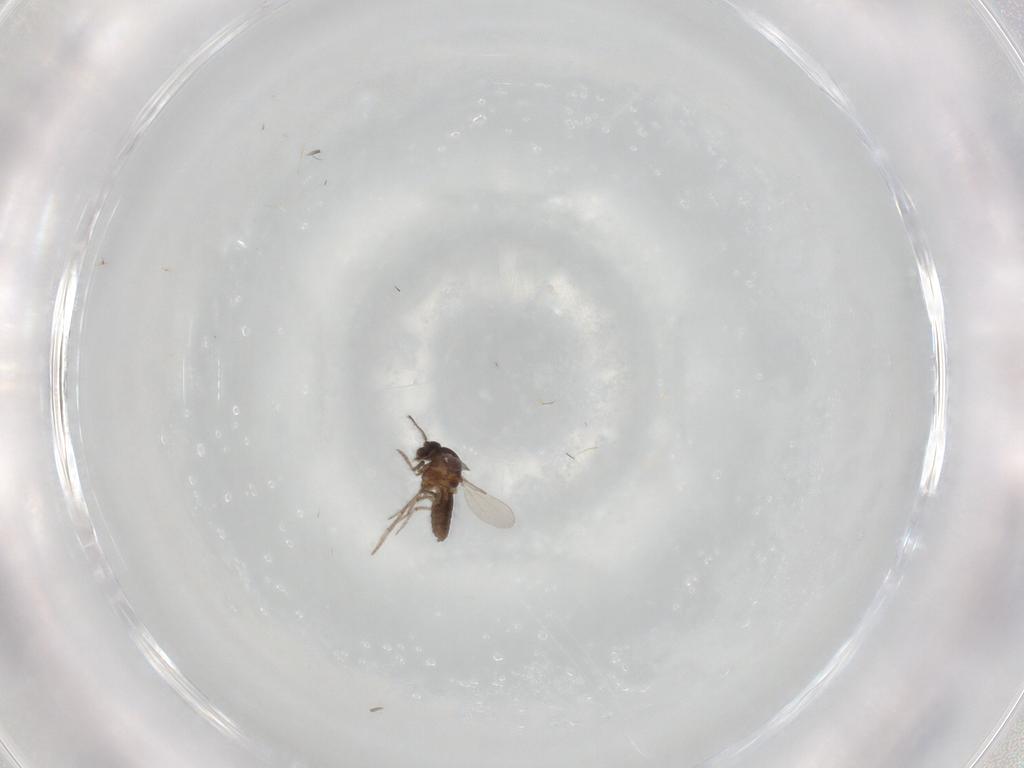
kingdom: Animalia
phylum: Arthropoda
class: Insecta
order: Diptera
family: Ceratopogonidae
